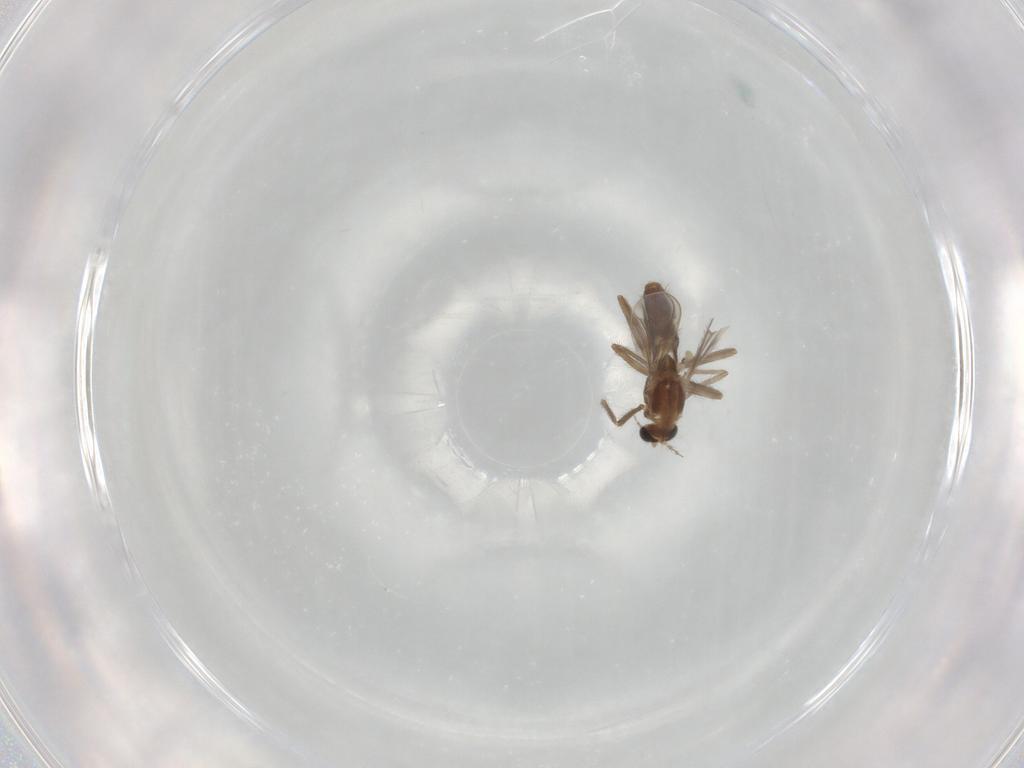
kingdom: Animalia
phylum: Arthropoda
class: Insecta
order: Diptera
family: Chironomidae
